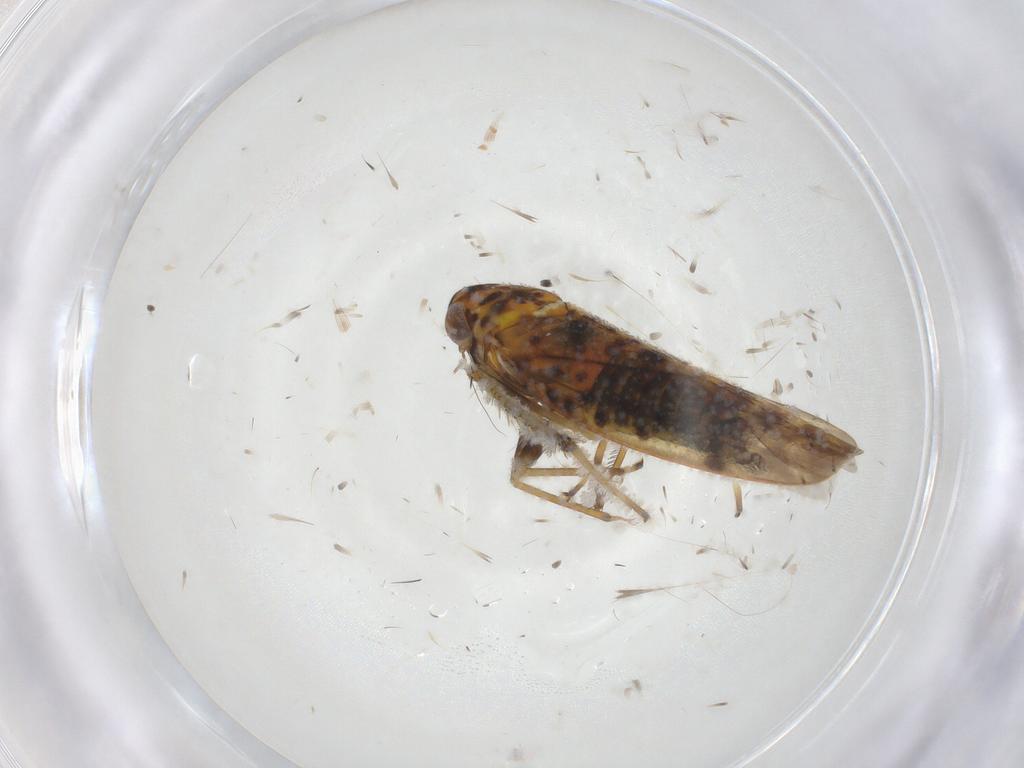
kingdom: Animalia
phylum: Arthropoda
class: Insecta
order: Hemiptera
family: Cicadellidae
